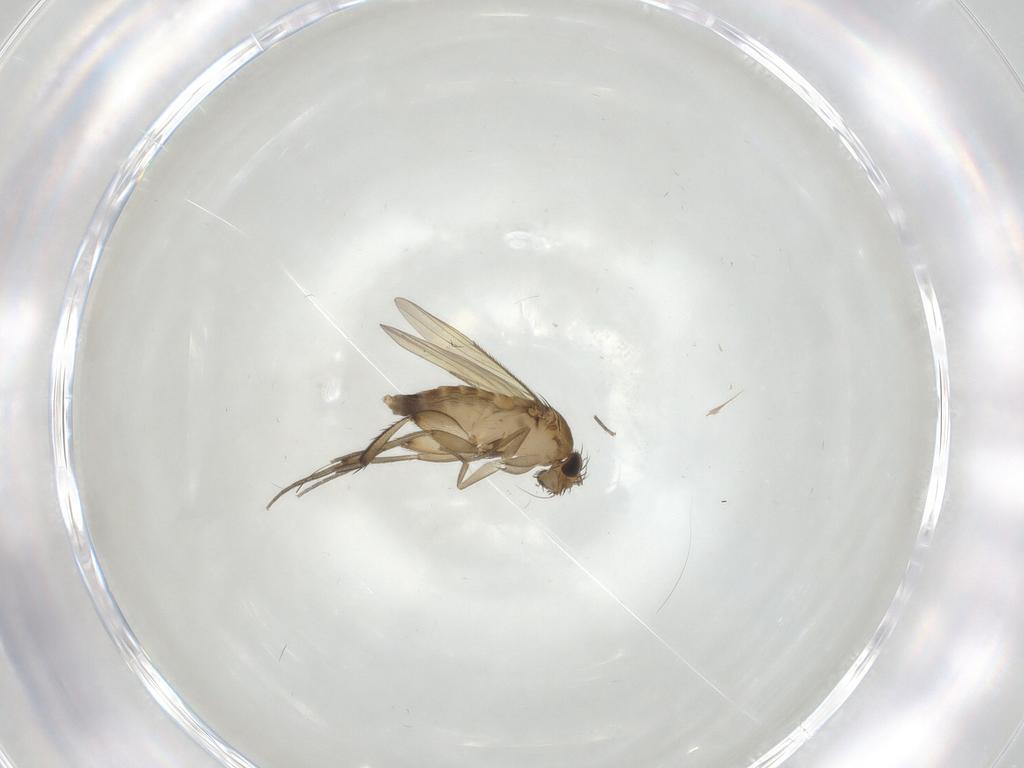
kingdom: Animalia
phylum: Arthropoda
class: Insecta
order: Diptera
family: Phoridae
